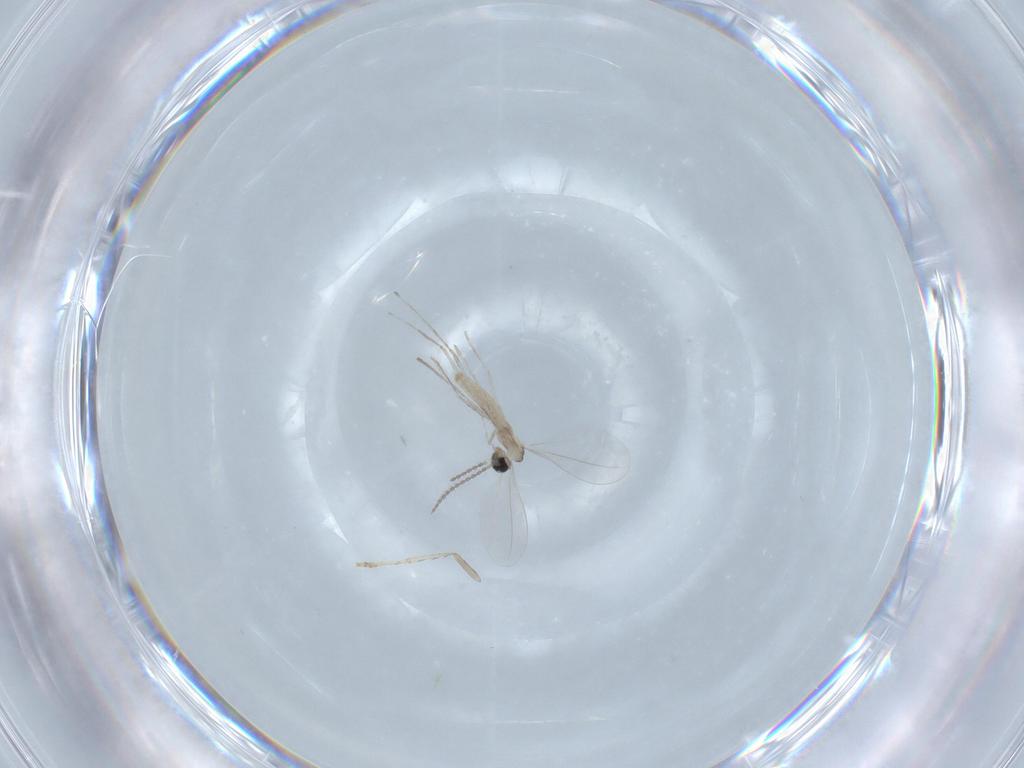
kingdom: Animalia
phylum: Arthropoda
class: Insecta
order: Diptera
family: Cecidomyiidae
